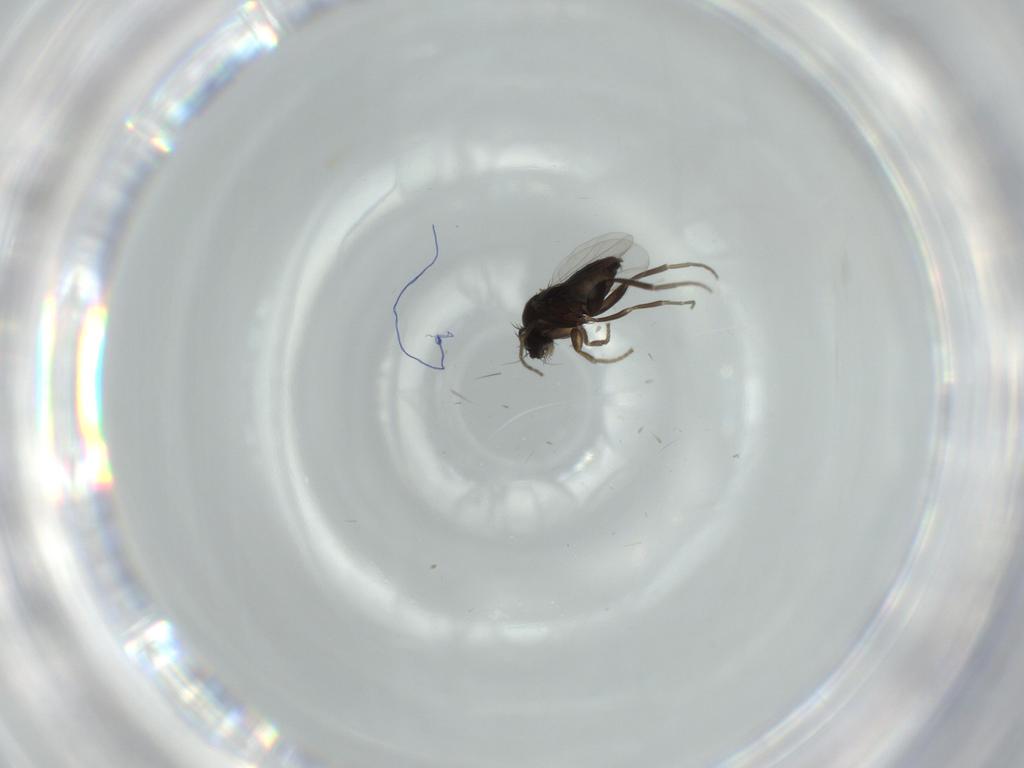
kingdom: Animalia
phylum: Arthropoda
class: Insecta
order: Diptera
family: Phoridae
